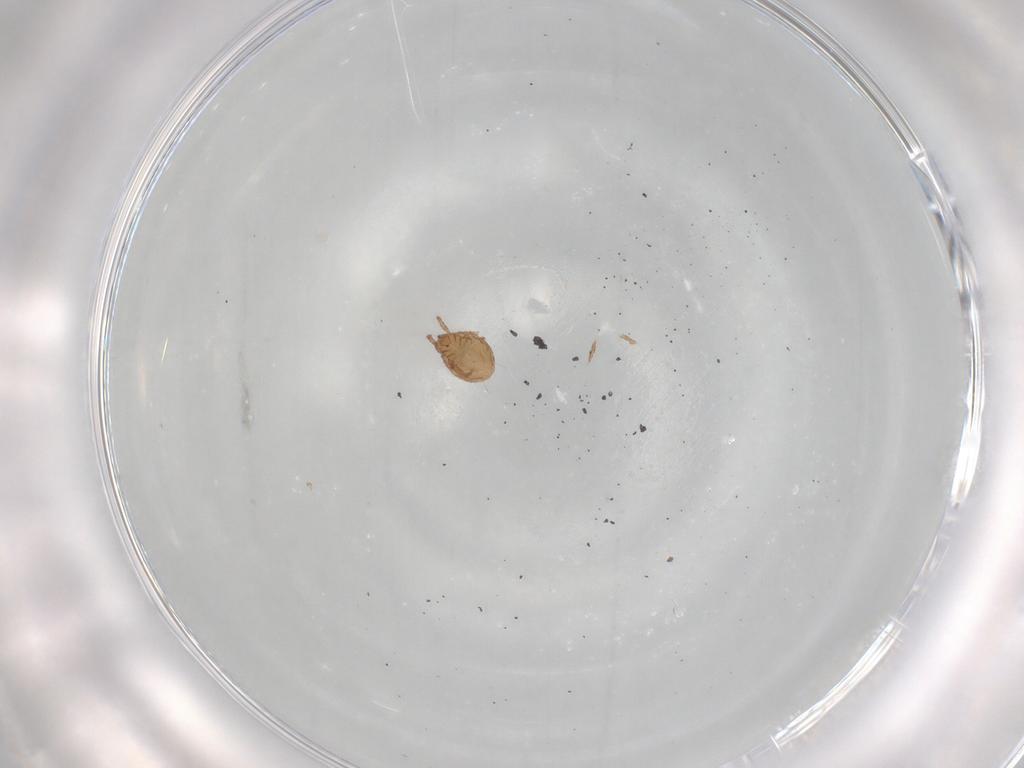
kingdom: Animalia
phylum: Arthropoda
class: Arachnida
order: Sarcoptiformes
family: Phenopelopidae
